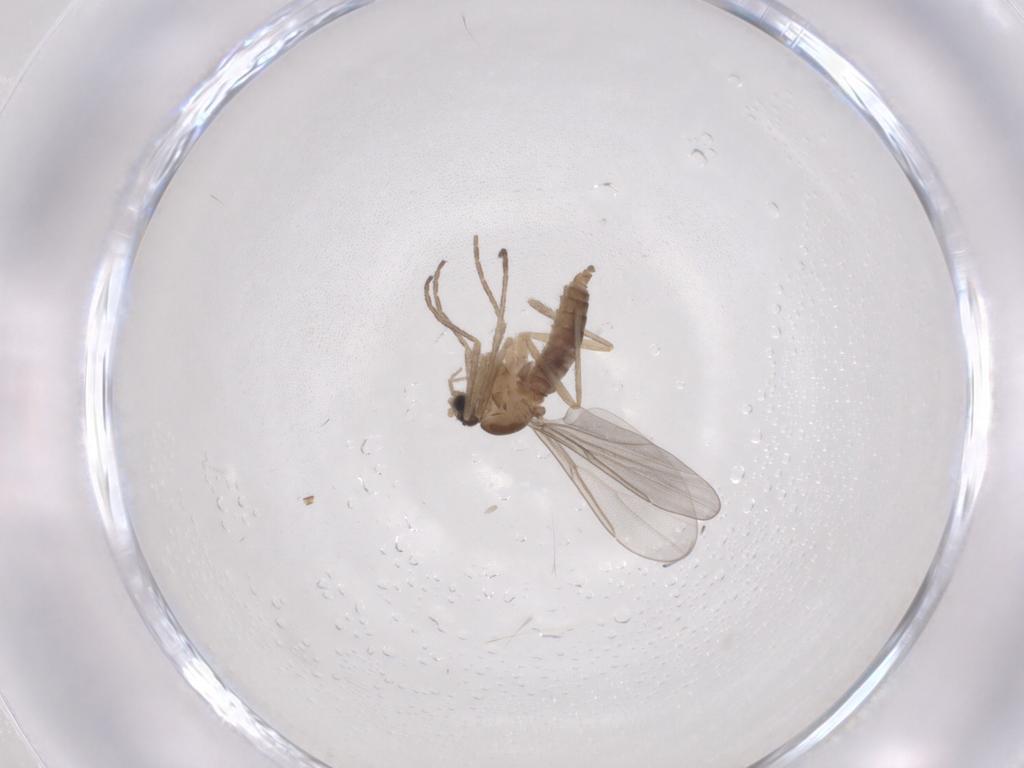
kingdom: Animalia
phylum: Arthropoda
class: Insecta
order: Diptera
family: Cecidomyiidae
